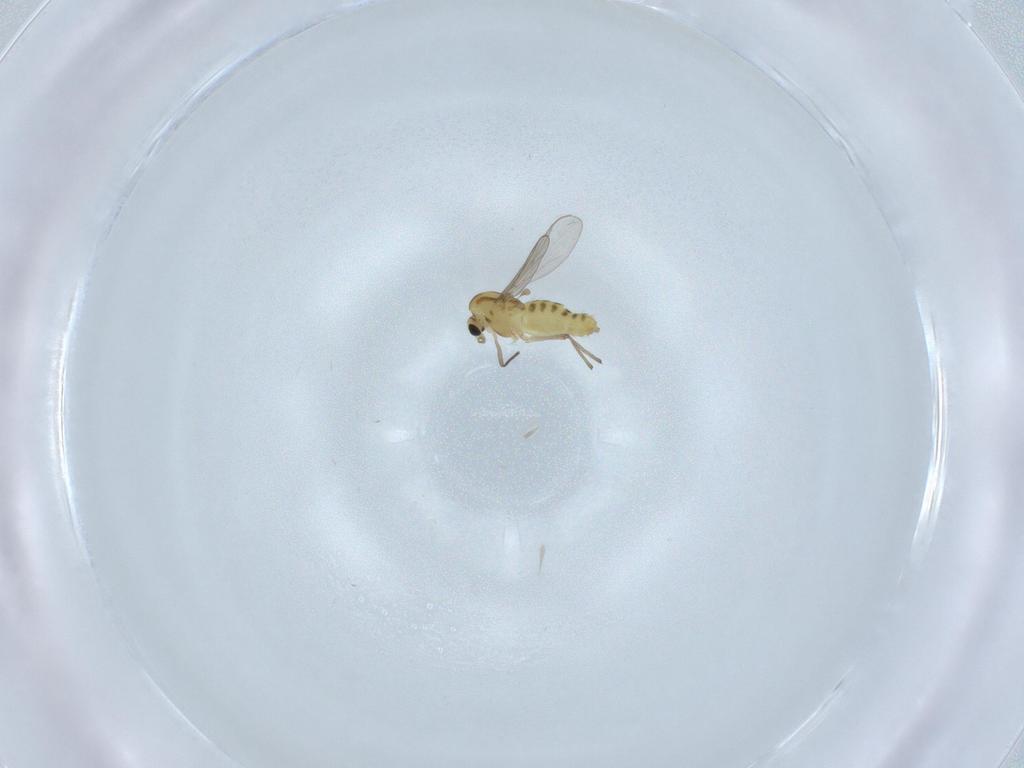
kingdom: Animalia
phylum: Arthropoda
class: Insecta
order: Diptera
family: Chironomidae
